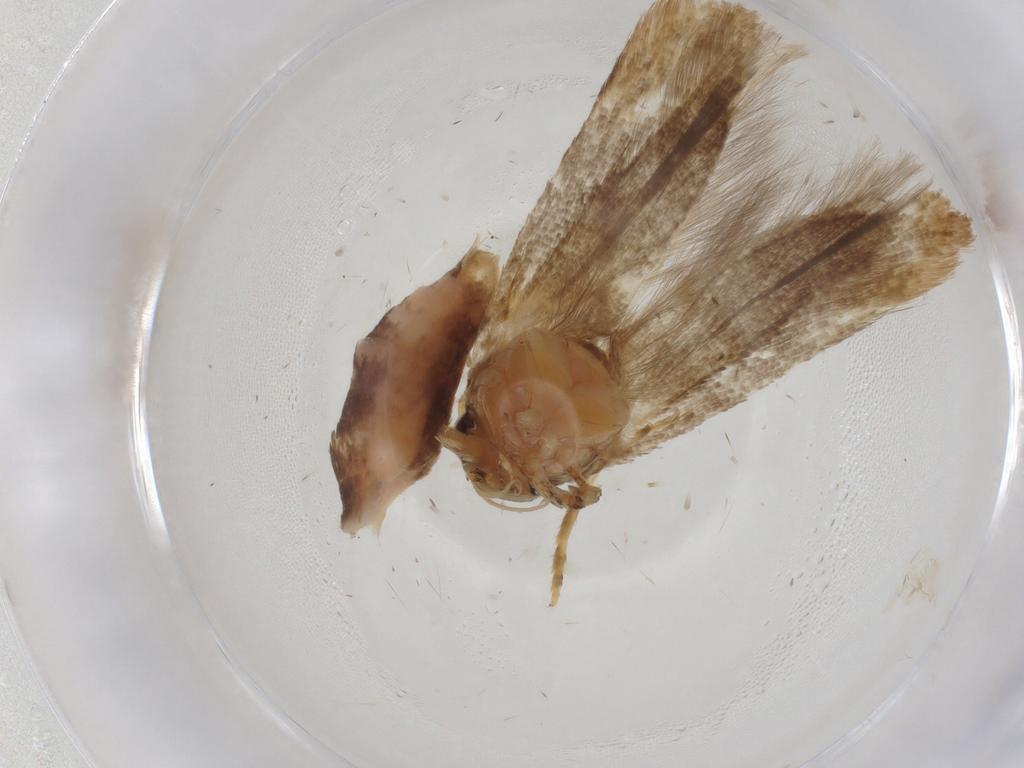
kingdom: Animalia
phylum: Arthropoda
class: Insecta
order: Lepidoptera
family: Gelechiidae
